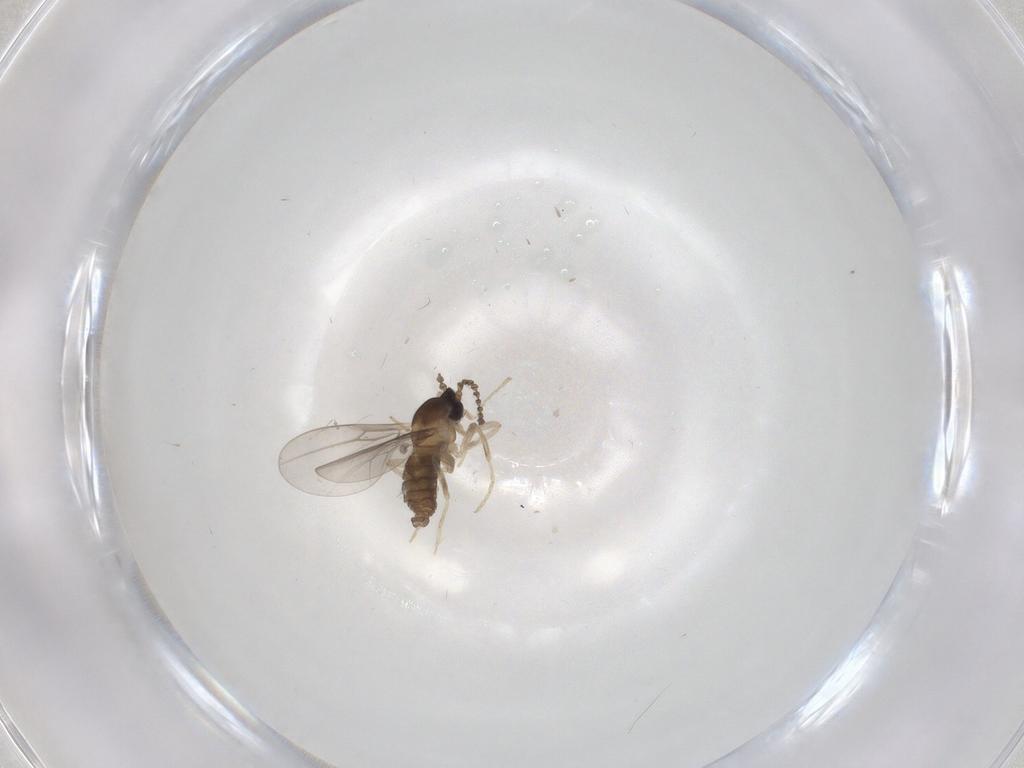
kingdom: Animalia
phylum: Arthropoda
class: Insecta
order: Diptera
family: Cecidomyiidae
